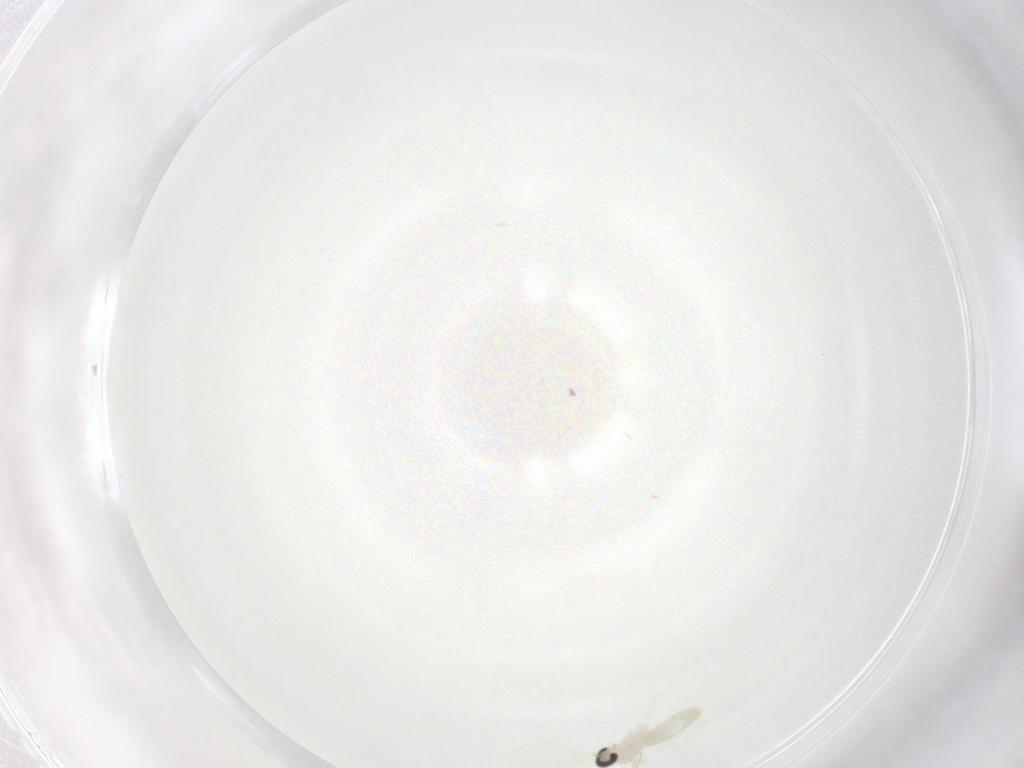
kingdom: Animalia
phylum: Arthropoda
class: Insecta
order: Diptera
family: Cecidomyiidae
